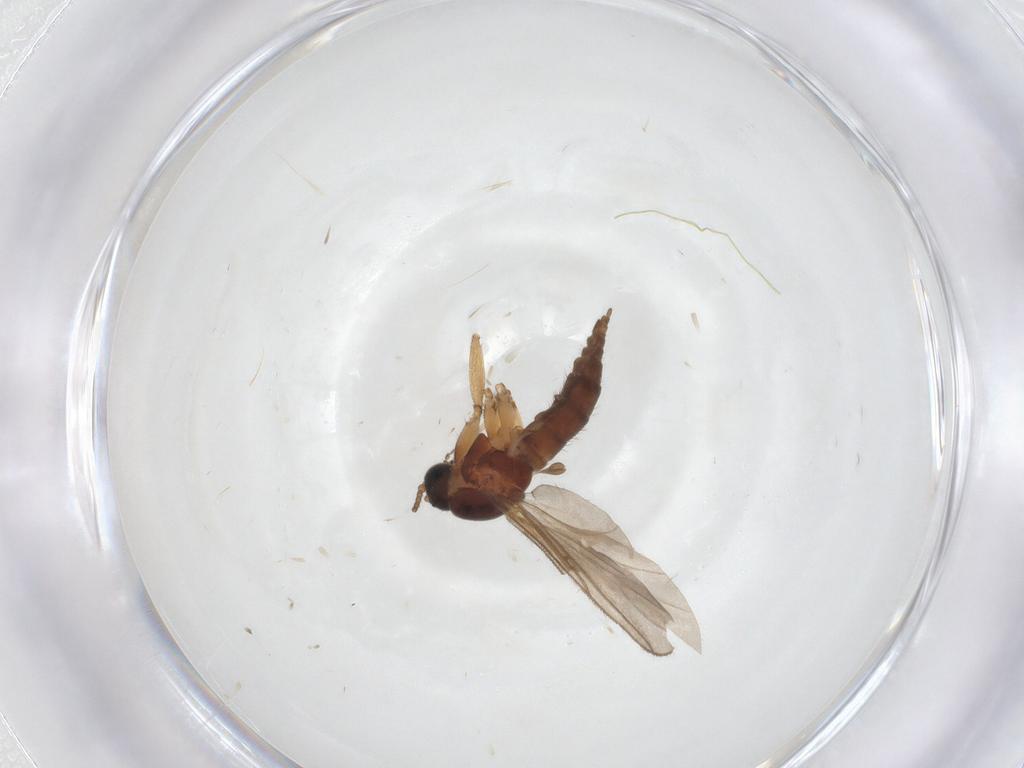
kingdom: Animalia
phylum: Arthropoda
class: Insecta
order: Diptera
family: Sciaridae
